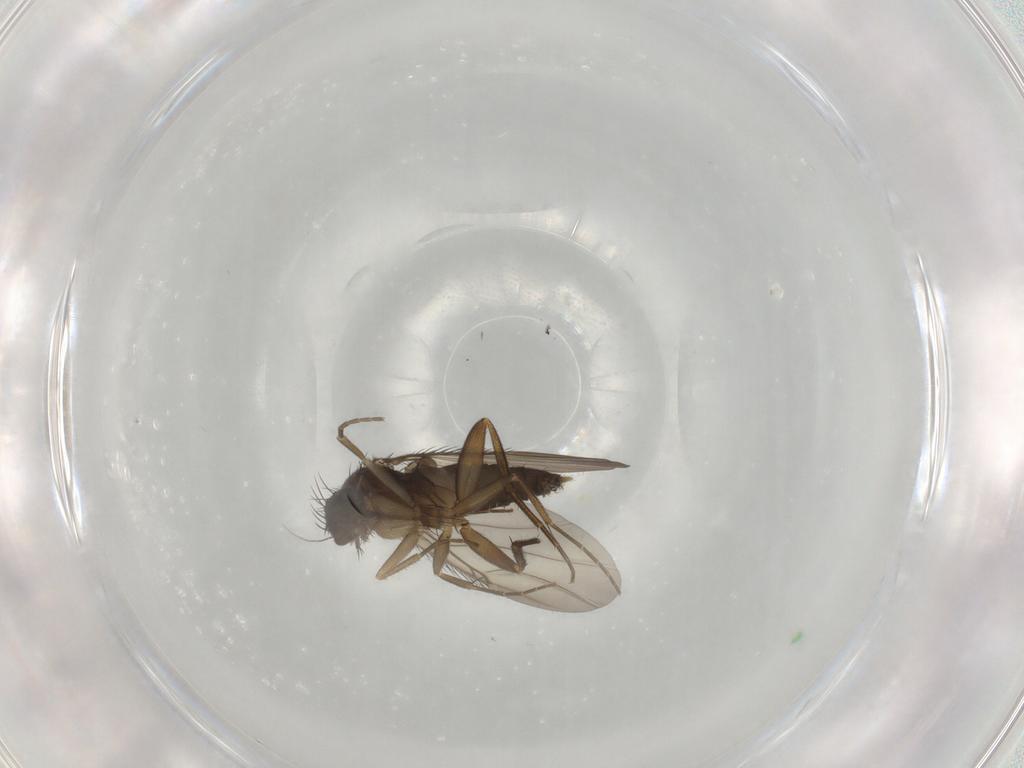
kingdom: Animalia
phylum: Arthropoda
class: Insecta
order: Diptera
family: Phoridae
